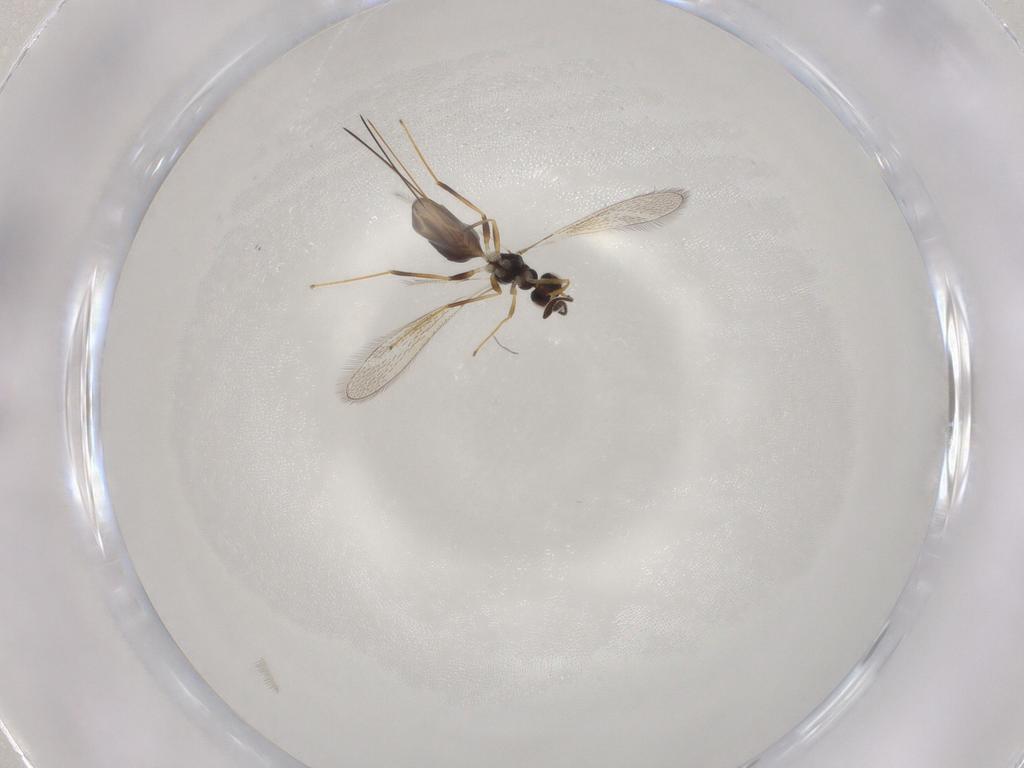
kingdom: Animalia
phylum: Arthropoda
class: Insecta
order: Hymenoptera
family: Mymaridae
